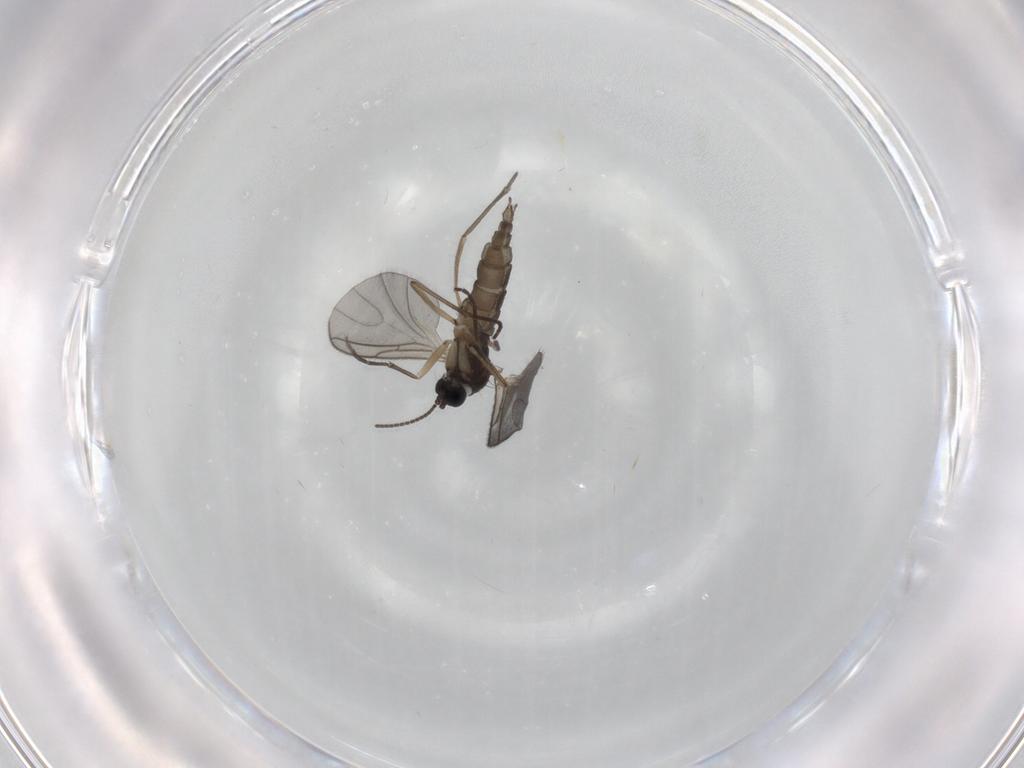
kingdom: Animalia
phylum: Arthropoda
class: Insecta
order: Diptera
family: Sciaridae
